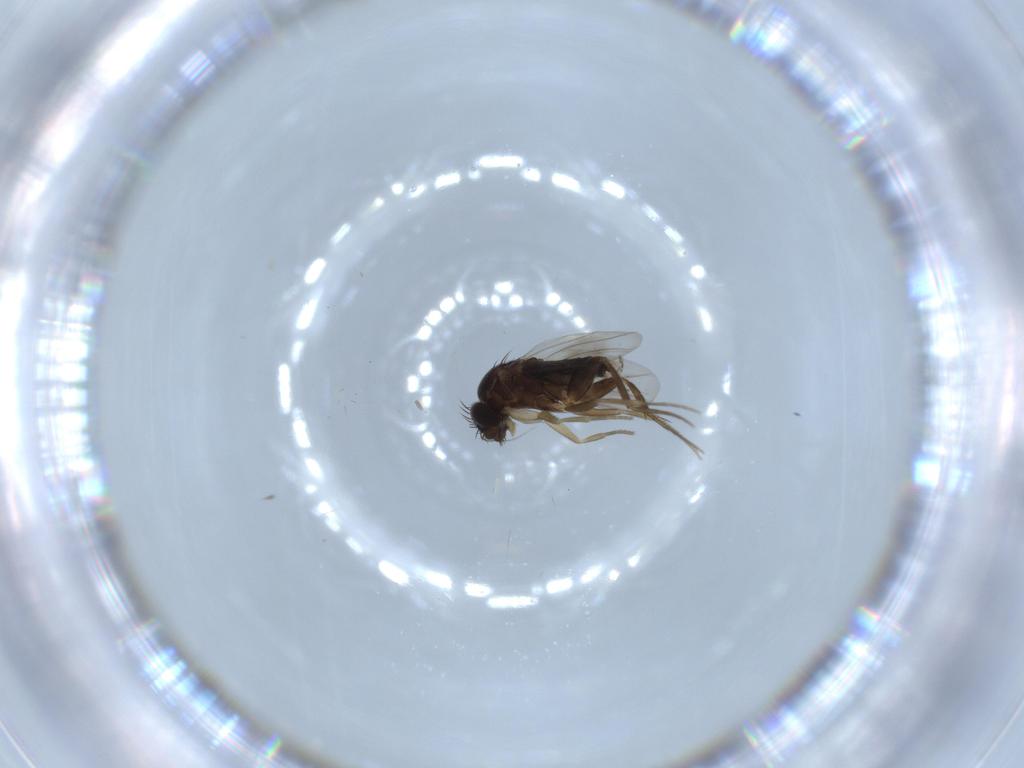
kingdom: Animalia
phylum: Arthropoda
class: Insecta
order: Diptera
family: Phoridae
